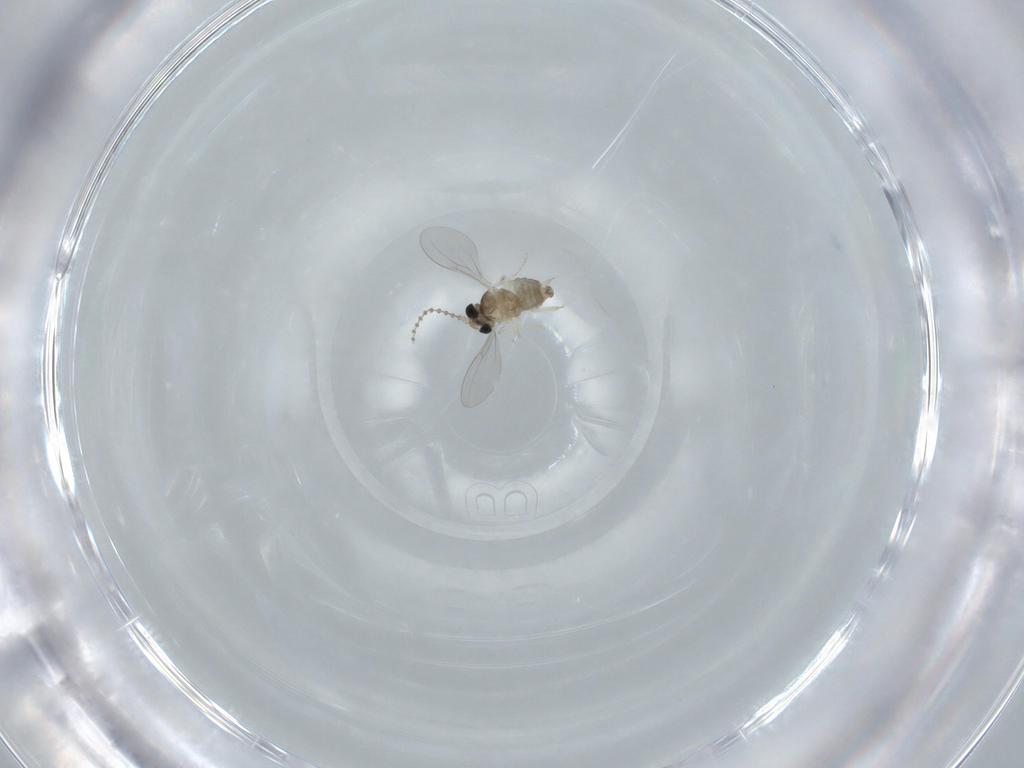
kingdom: Animalia
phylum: Arthropoda
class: Insecta
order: Diptera
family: Cecidomyiidae
